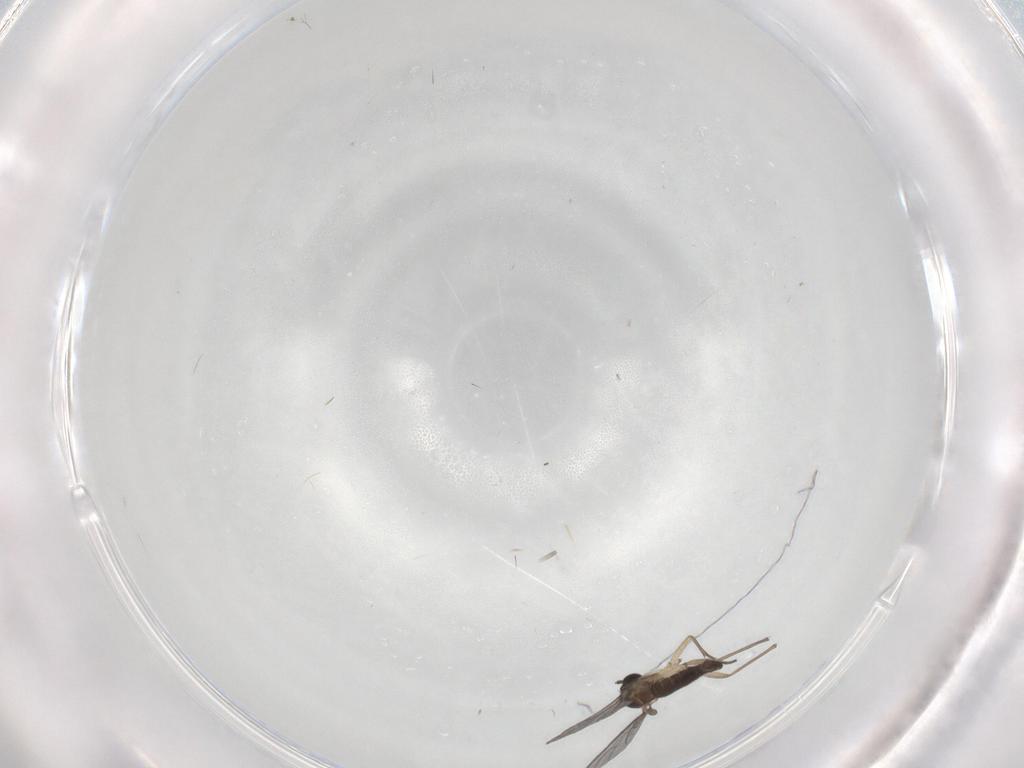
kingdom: Animalia
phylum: Arthropoda
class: Insecta
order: Diptera
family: Sciaridae
